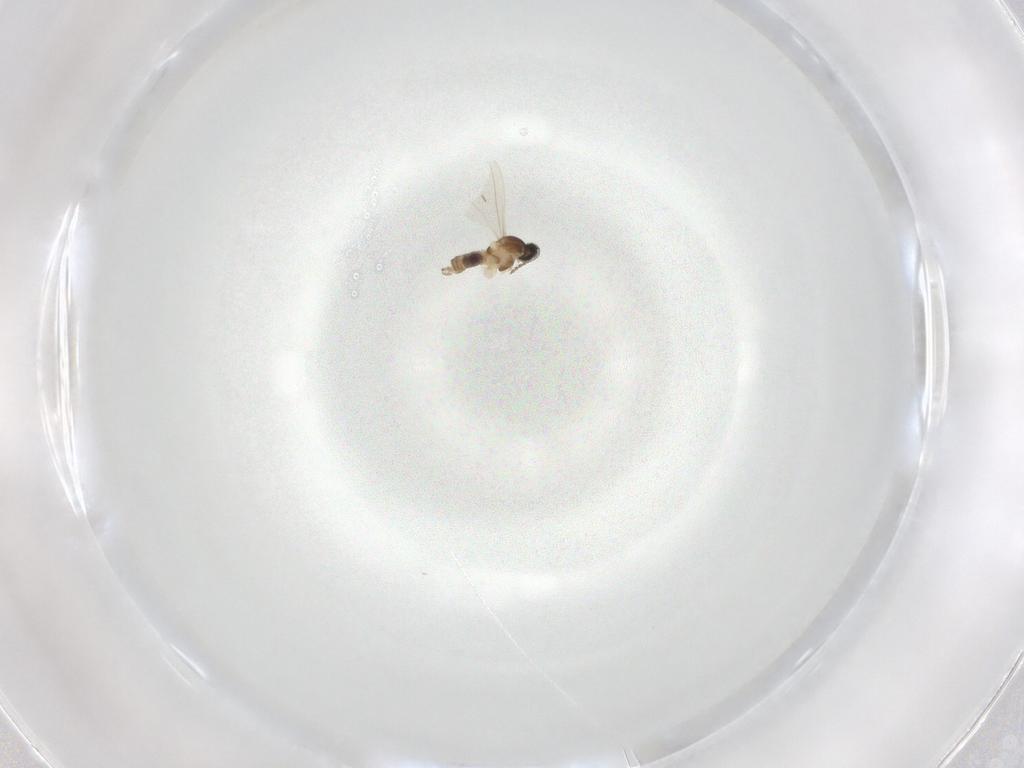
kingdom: Animalia
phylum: Arthropoda
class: Insecta
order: Diptera
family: Cecidomyiidae
